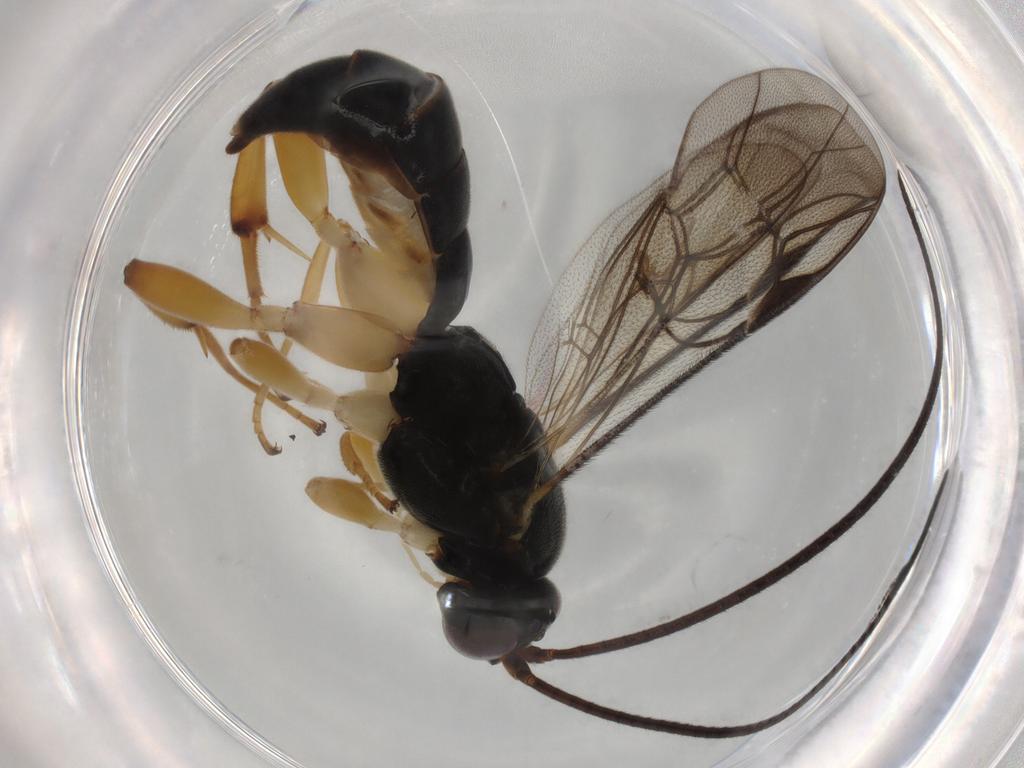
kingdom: Animalia
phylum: Arthropoda
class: Insecta
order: Hymenoptera
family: Ichneumonidae
